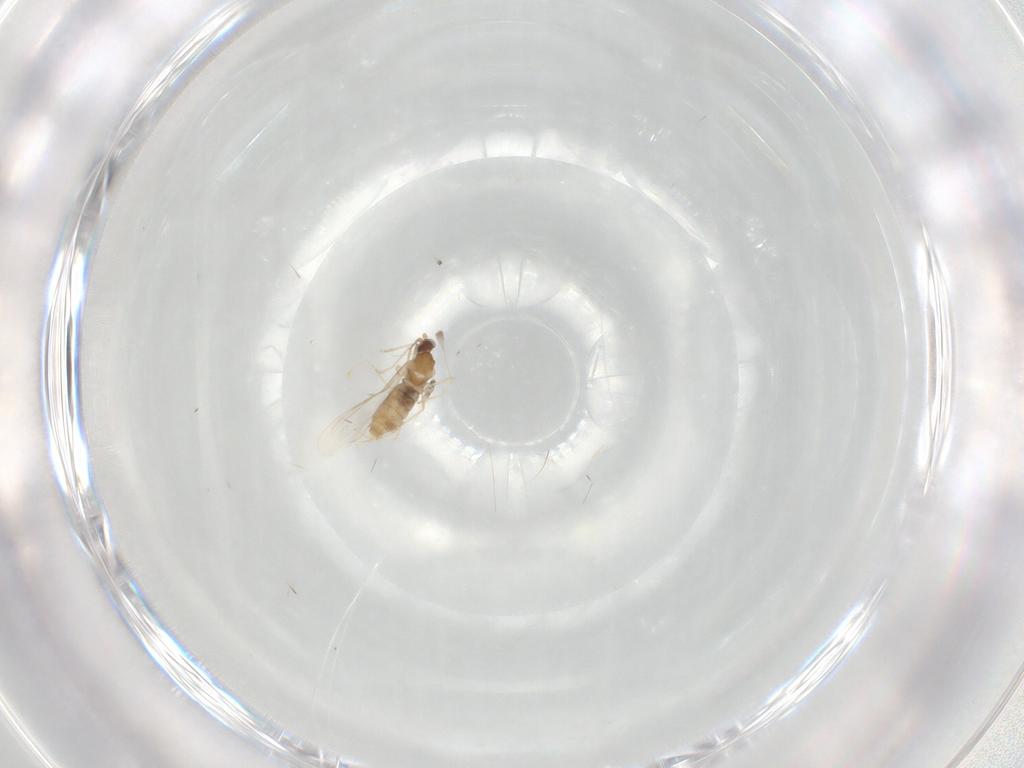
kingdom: Animalia
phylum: Arthropoda
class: Insecta
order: Diptera
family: Cecidomyiidae
